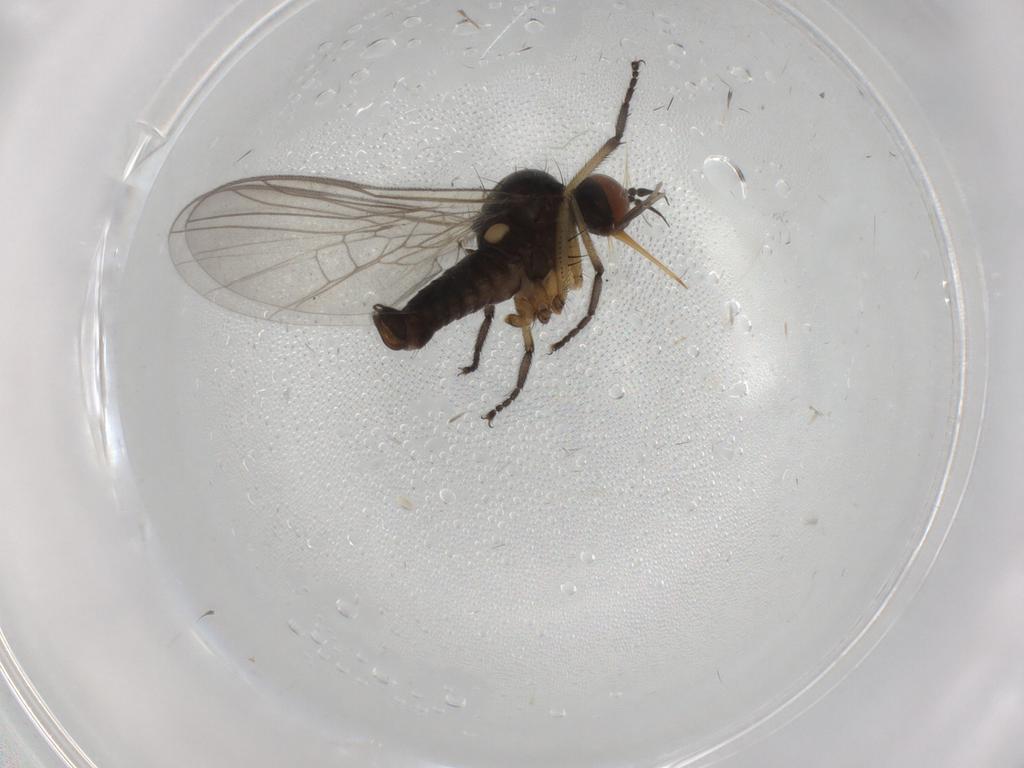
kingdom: Animalia
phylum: Arthropoda
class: Insecta
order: Diptera
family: Empididae
